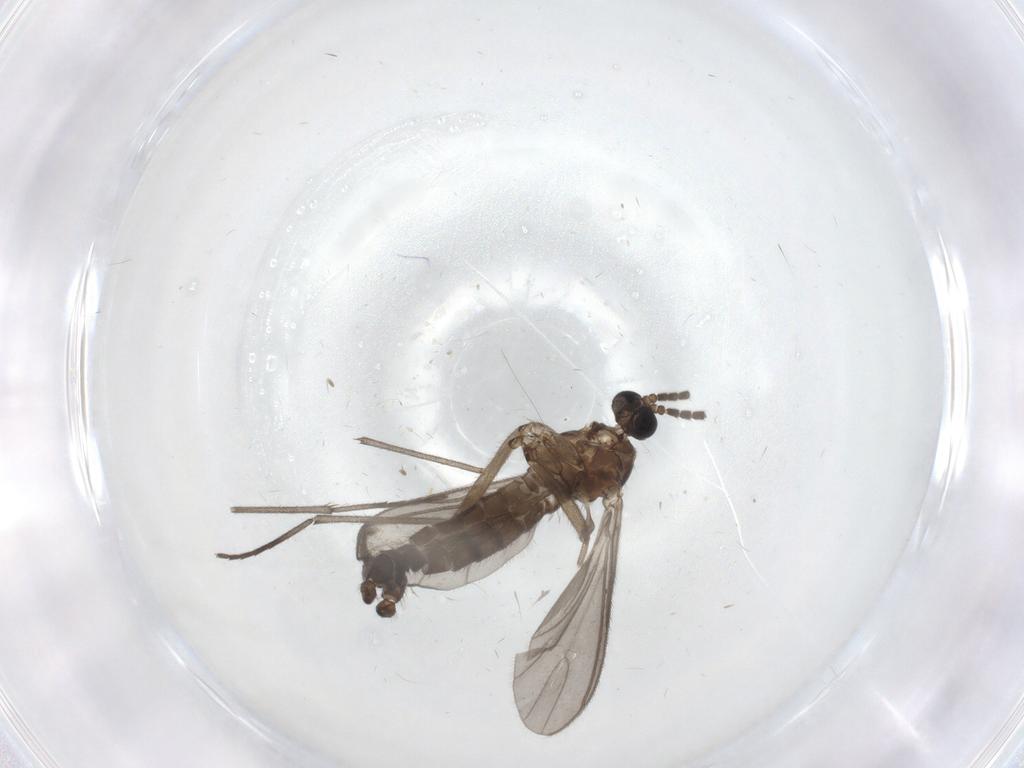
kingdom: Animalia
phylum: Arthropoda
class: Insecta
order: Diptera
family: Sciaridae
